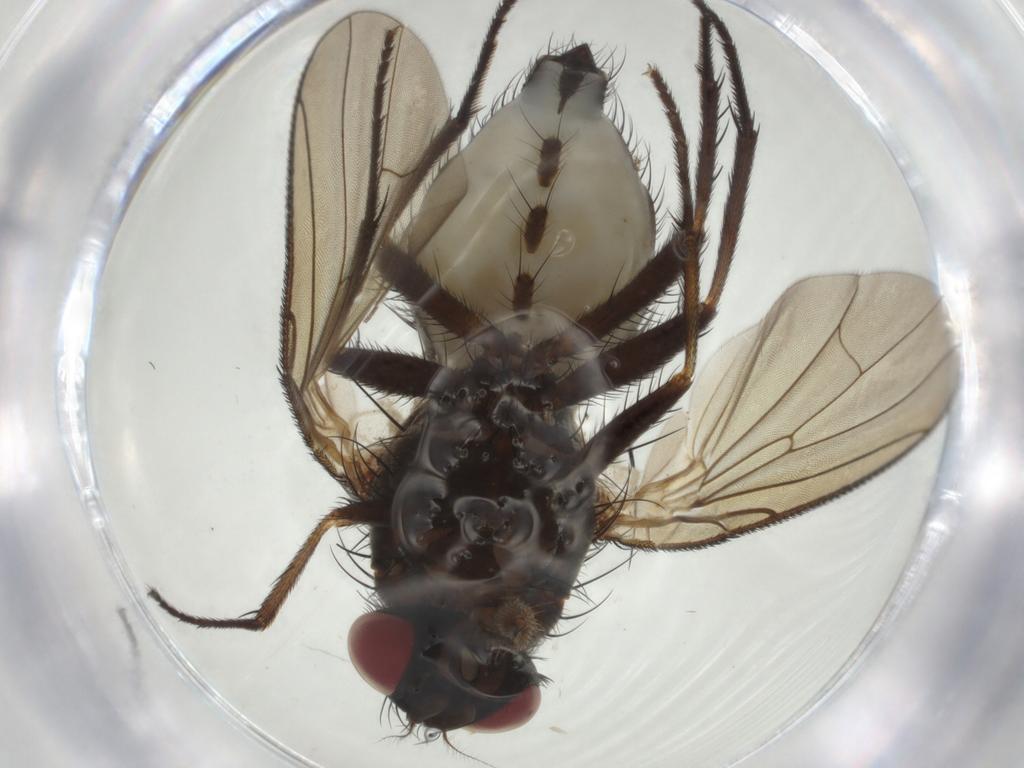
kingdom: Animalia
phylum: Arthropoda
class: Insecta
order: Diptera
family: Anthomyiidae
